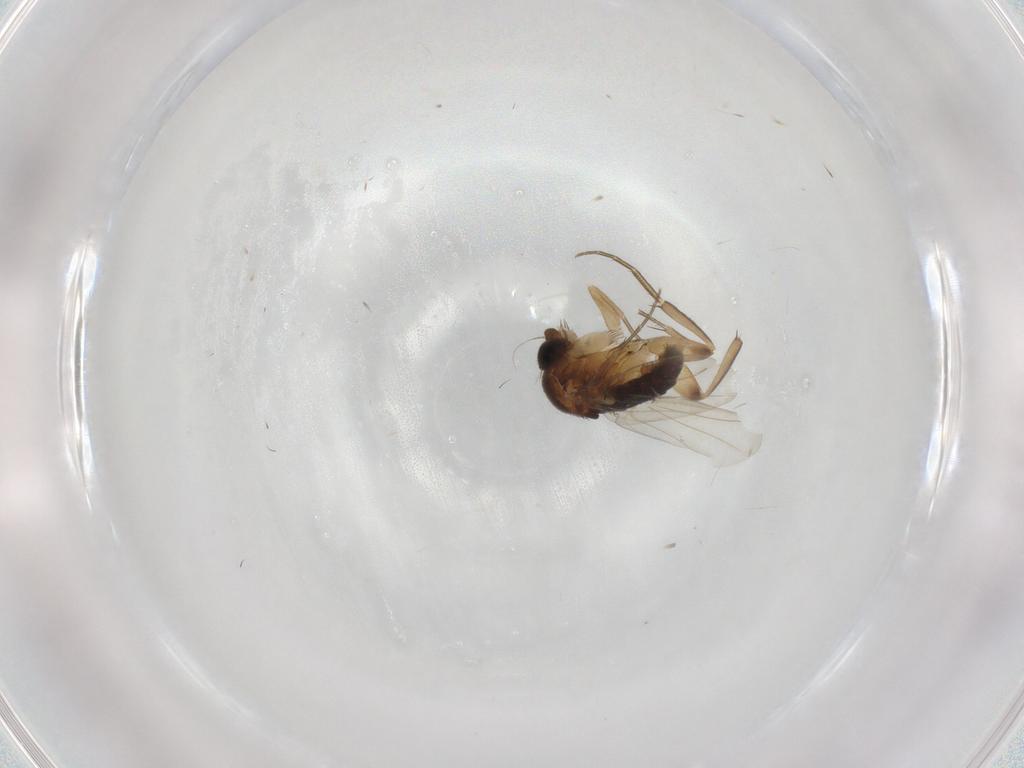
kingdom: Animalia
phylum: Arthropoda
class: Insecta
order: Diptera
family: Phoridae
